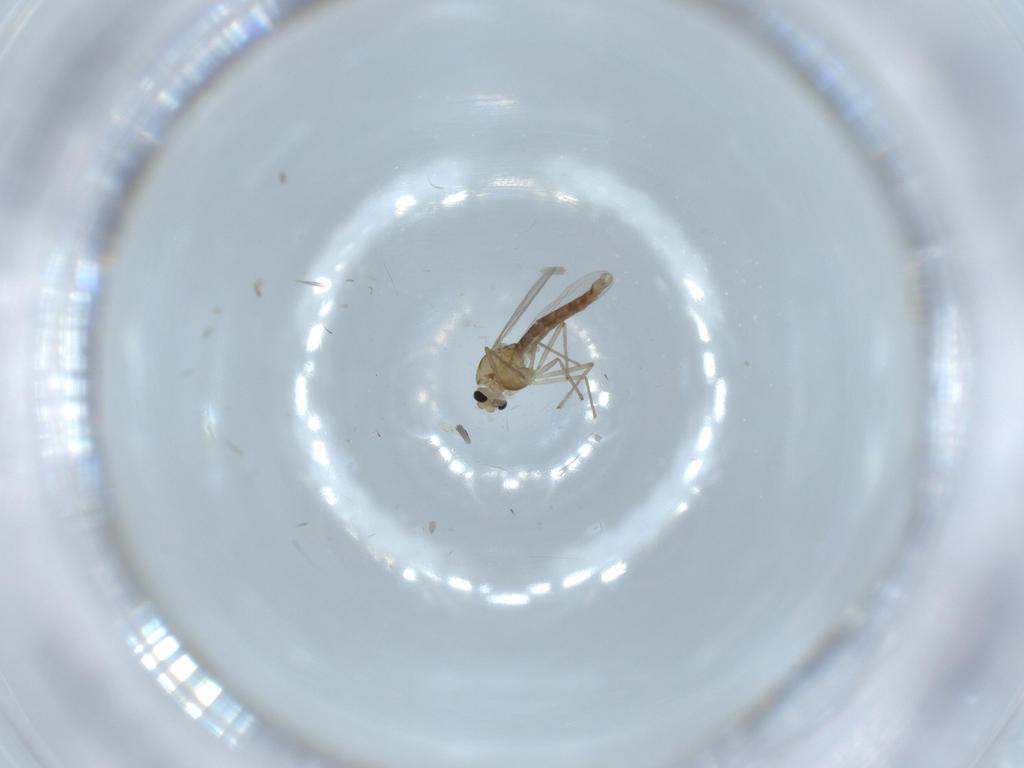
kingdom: Animalia
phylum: Arthropoda
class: Insecta
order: Diptera
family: Chironomidae
